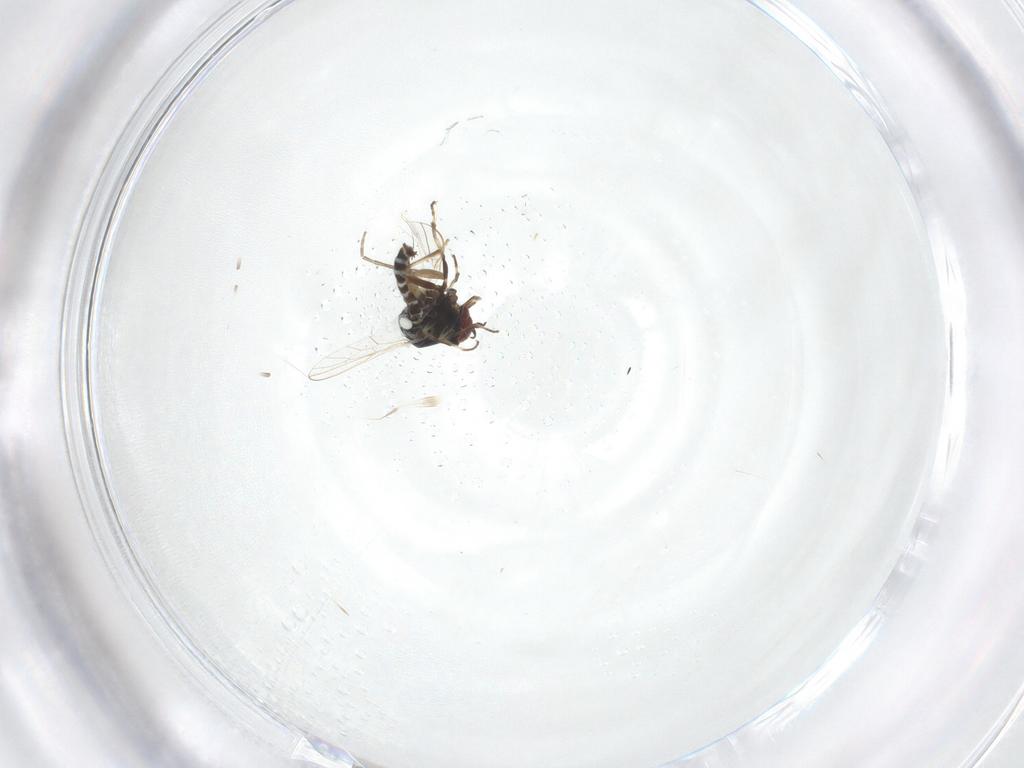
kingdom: Animalia
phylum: Arthropoda
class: Insecta
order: Diptera
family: Mythicomyiidae
